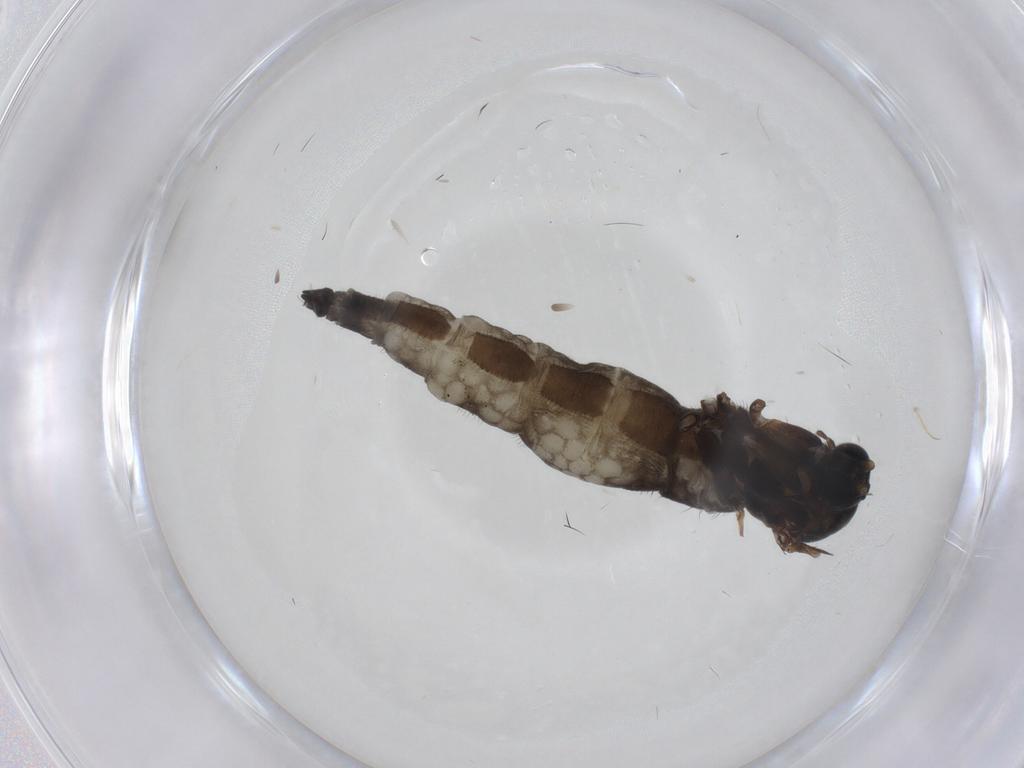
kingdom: Animalia
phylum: Arthropoda
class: Insecta
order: Diptera
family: Sciaridae
